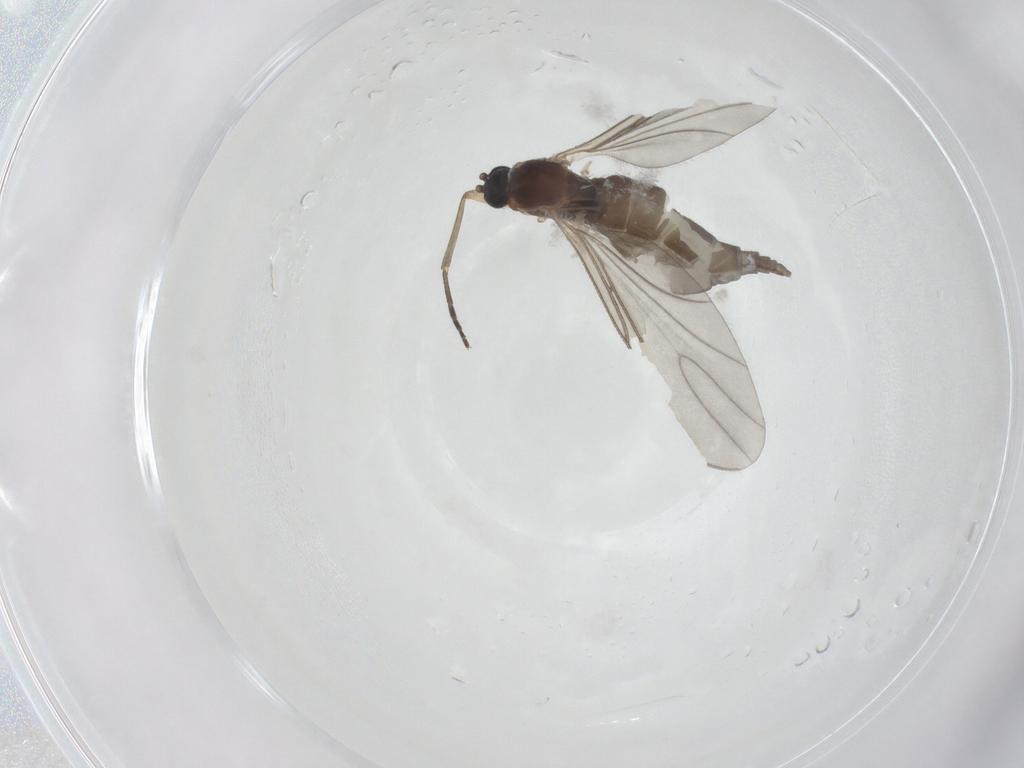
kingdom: Animalia
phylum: Arthropoda
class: Insecta
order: Diptera
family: Sciaridae
